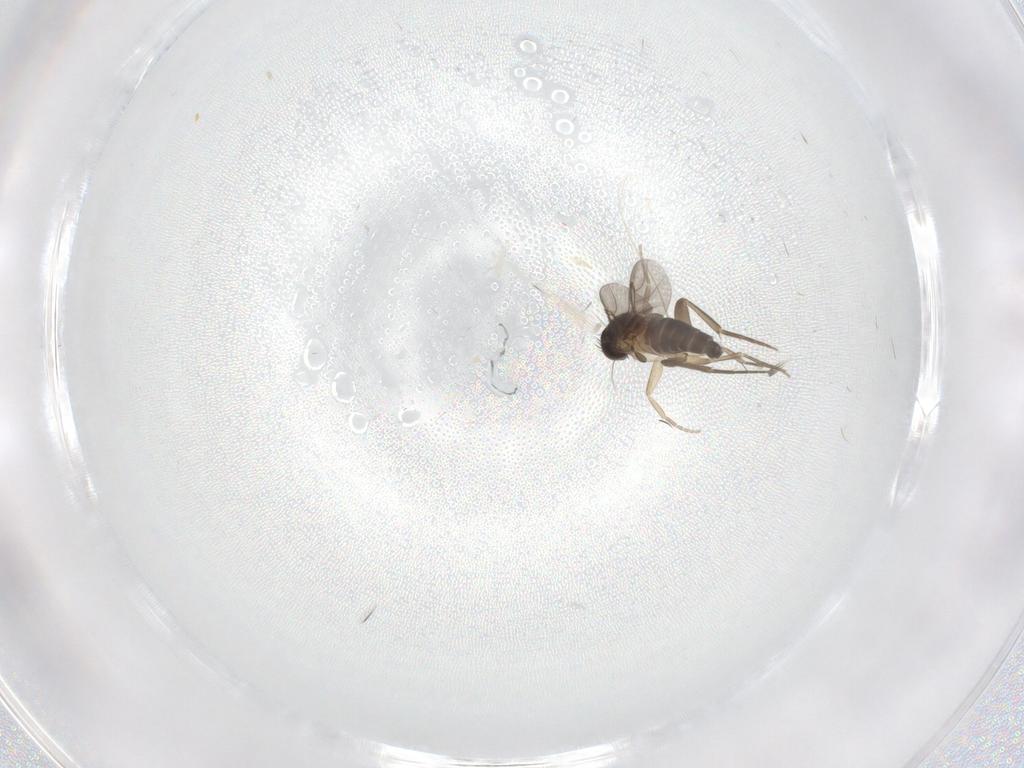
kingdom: Animalia
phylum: Arthropoda
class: Insecta
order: Diptera
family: Phoridae
